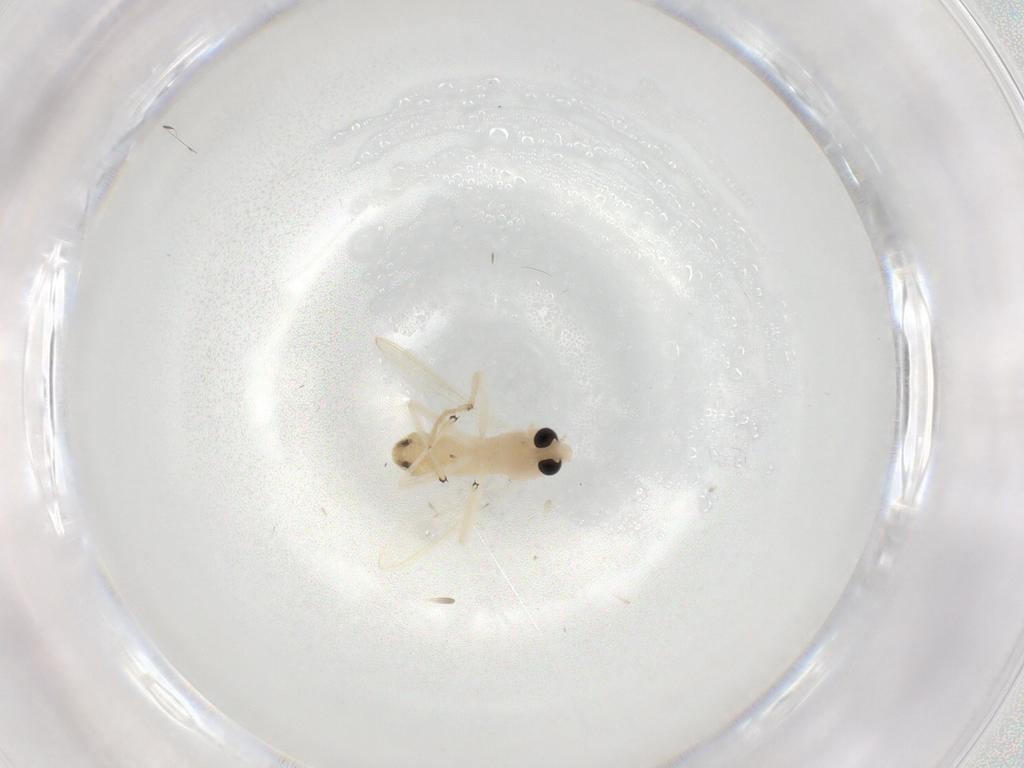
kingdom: Animalia
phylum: Arthropoda
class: Insecta
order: Diptera
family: Chironomidae
